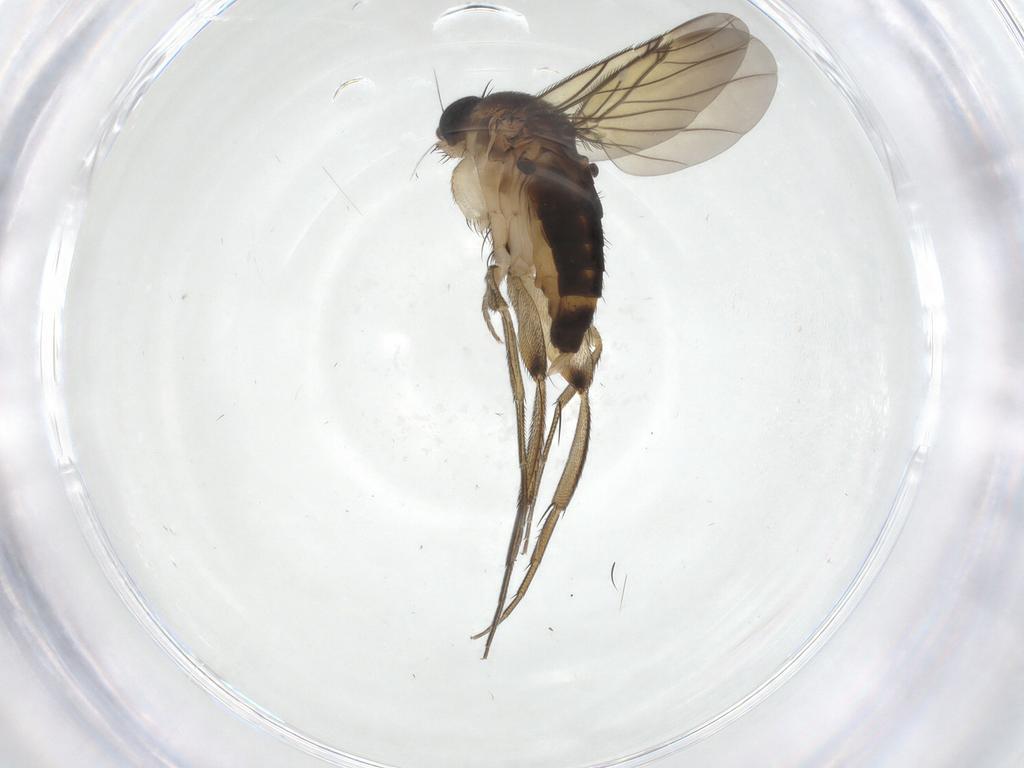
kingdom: Animalia
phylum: Arthropoda
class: Insecta
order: Diptera
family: Phoridae
